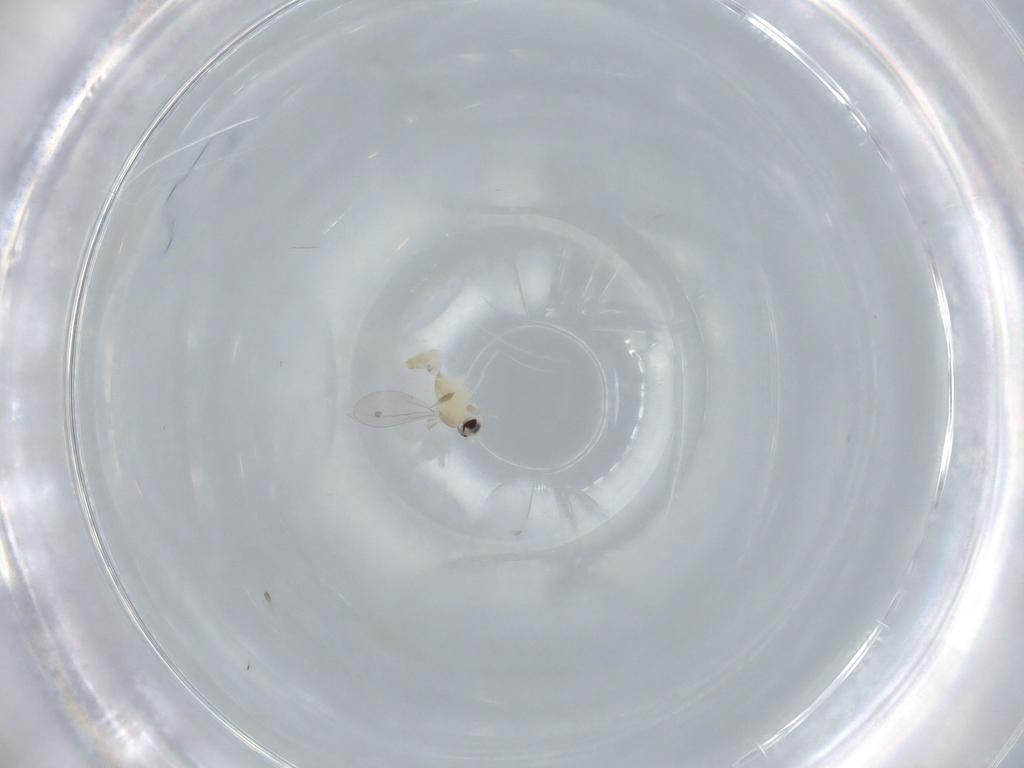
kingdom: Animalia
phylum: Arthropoda
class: Insecta
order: Diptera
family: Cecidomyiidae
